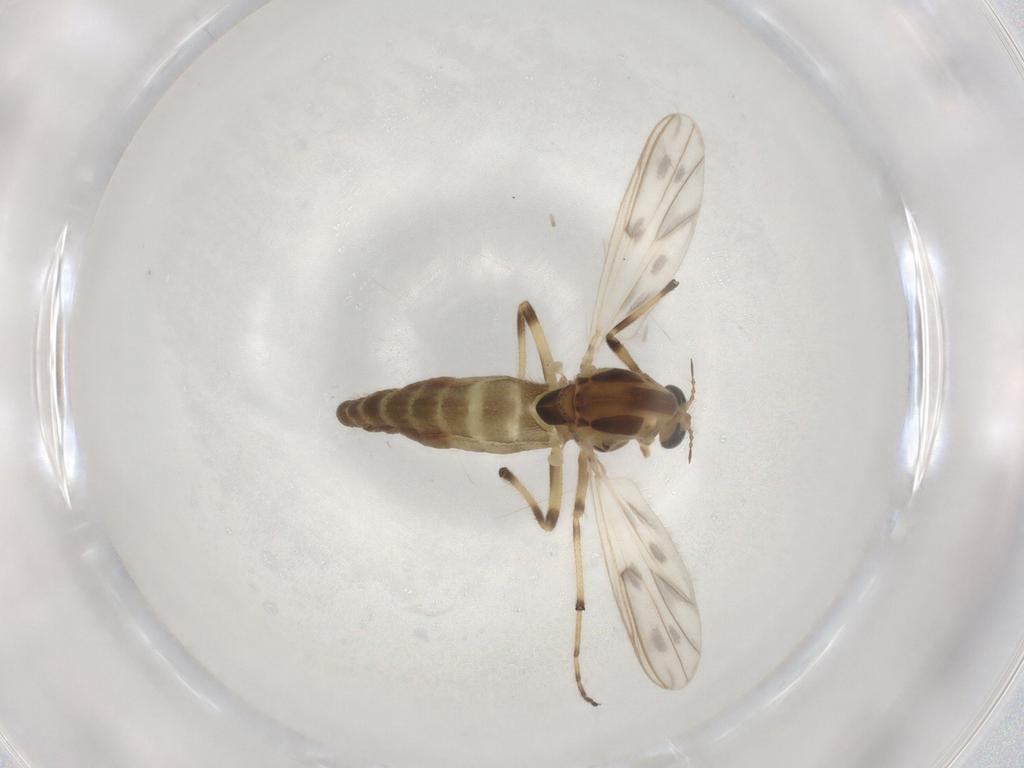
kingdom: Animalia
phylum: Arthropoda
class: Insecta
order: Diptera
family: Chironomidae
